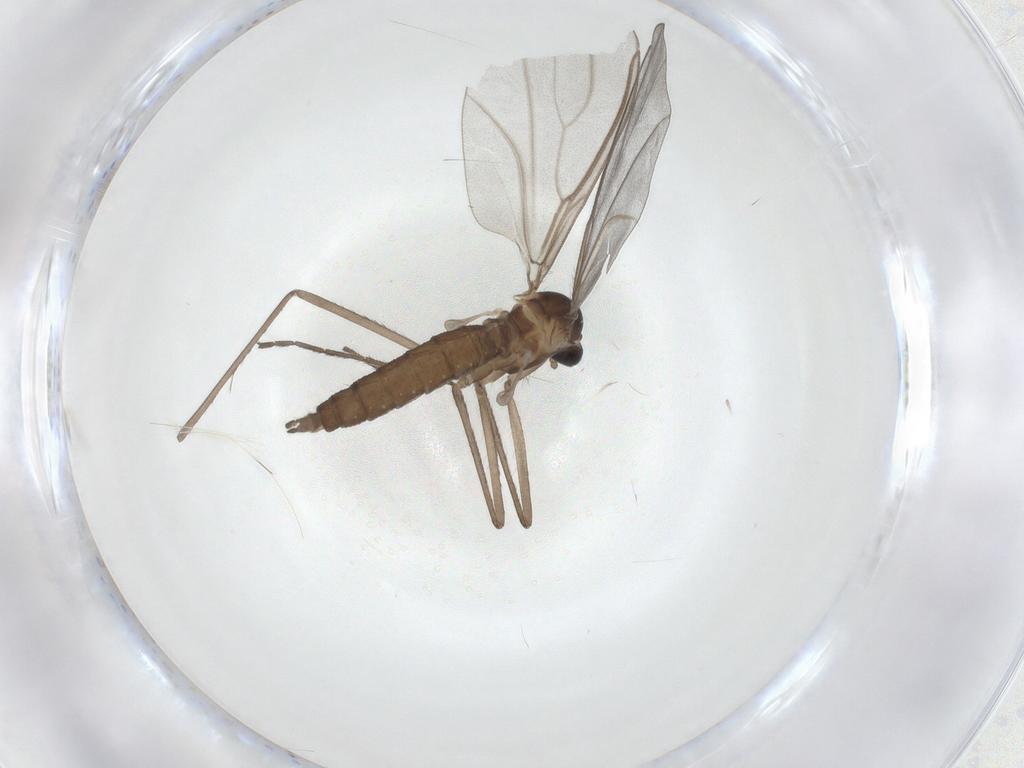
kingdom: Animalia
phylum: Arthropoda
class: Insecta
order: Diptera
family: Cecidomyiidae
